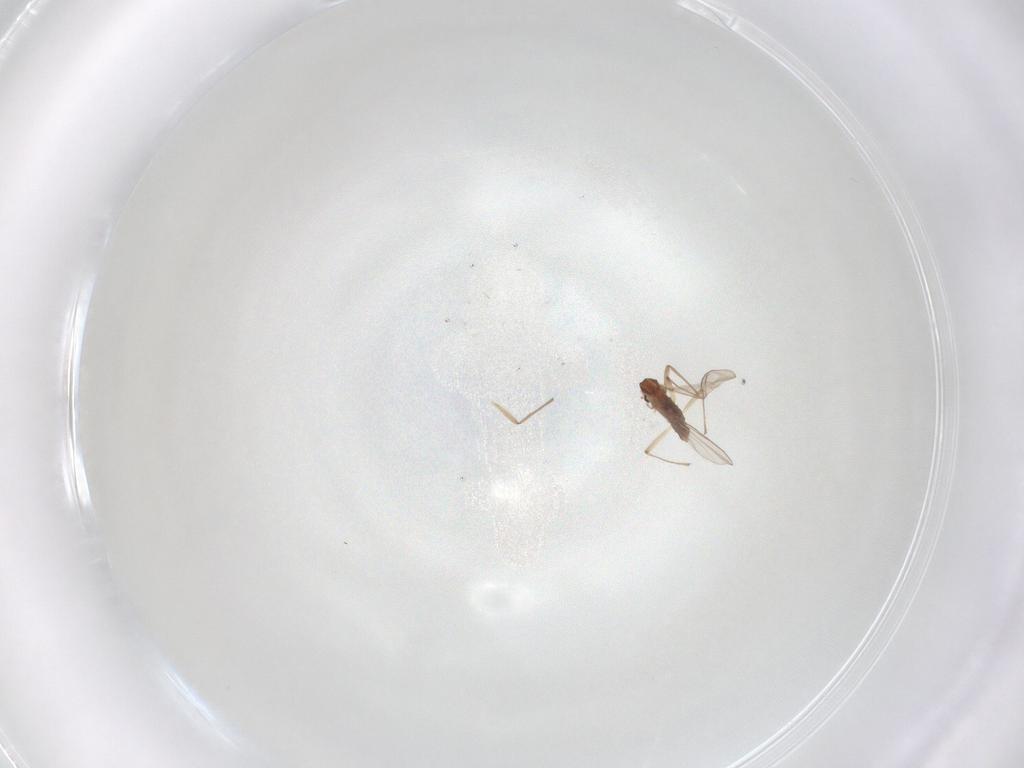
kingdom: Animalia
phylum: Arthropoda
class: Insecta
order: Diptera
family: Chironomidae
